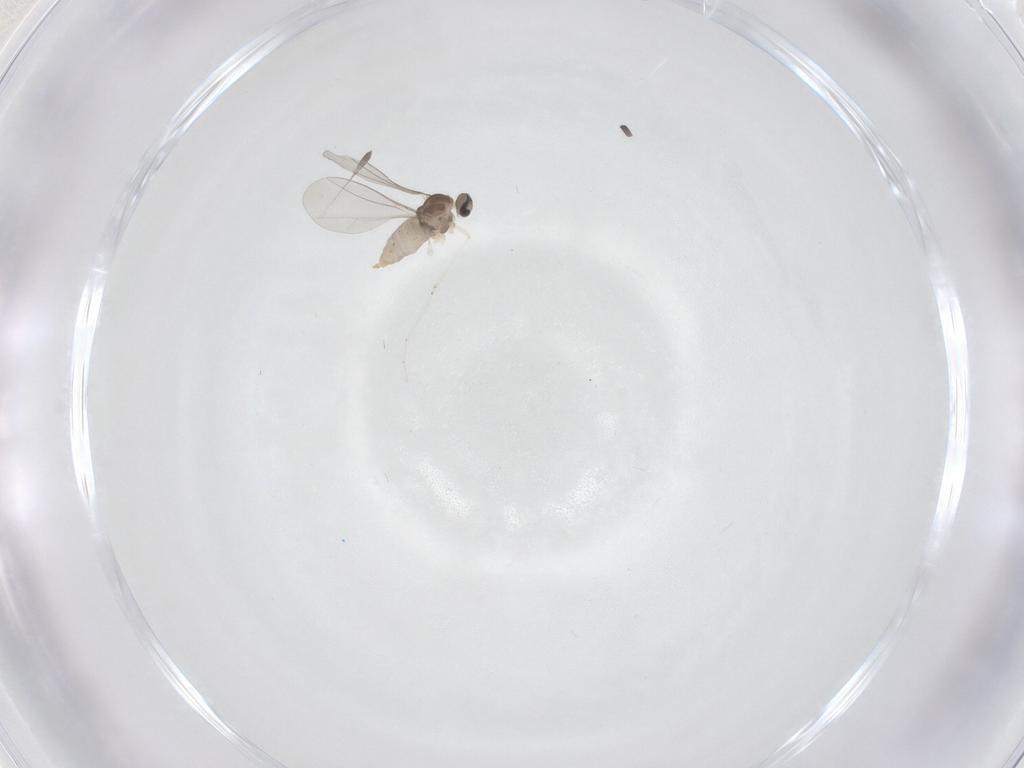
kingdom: Animalia
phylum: Arthropoda
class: Insecta
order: Diptera
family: Cecidomyiidae
